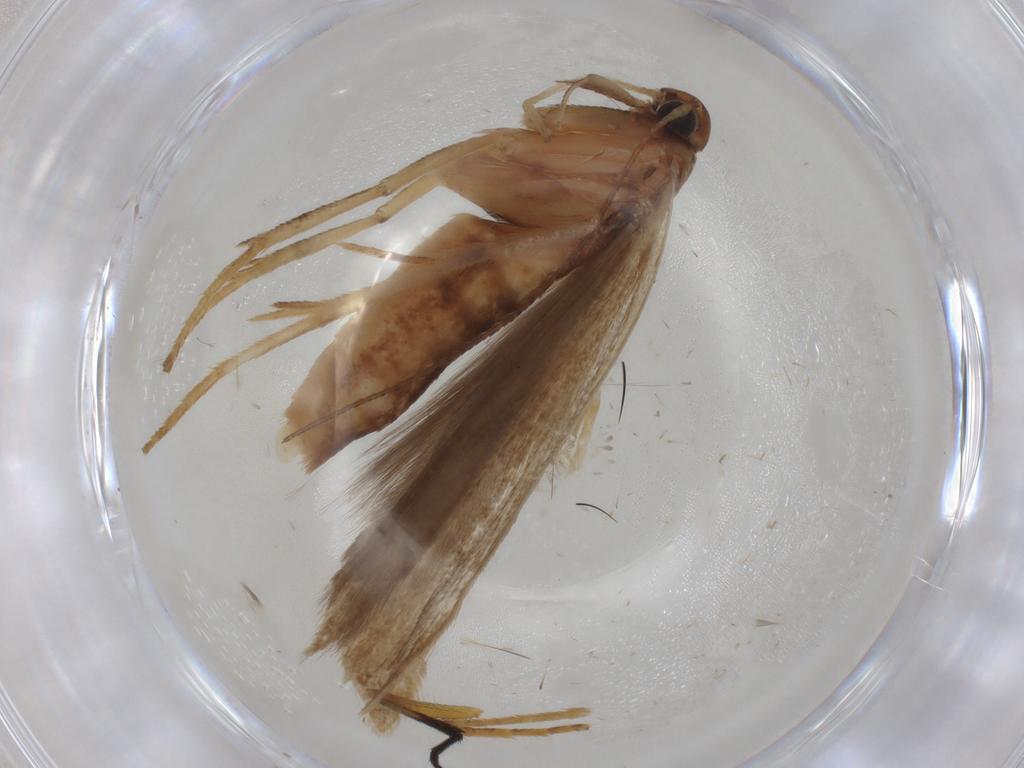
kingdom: Animalia
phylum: Arthropoda
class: Insecta
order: Lepidoptera
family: Gelechiidae
